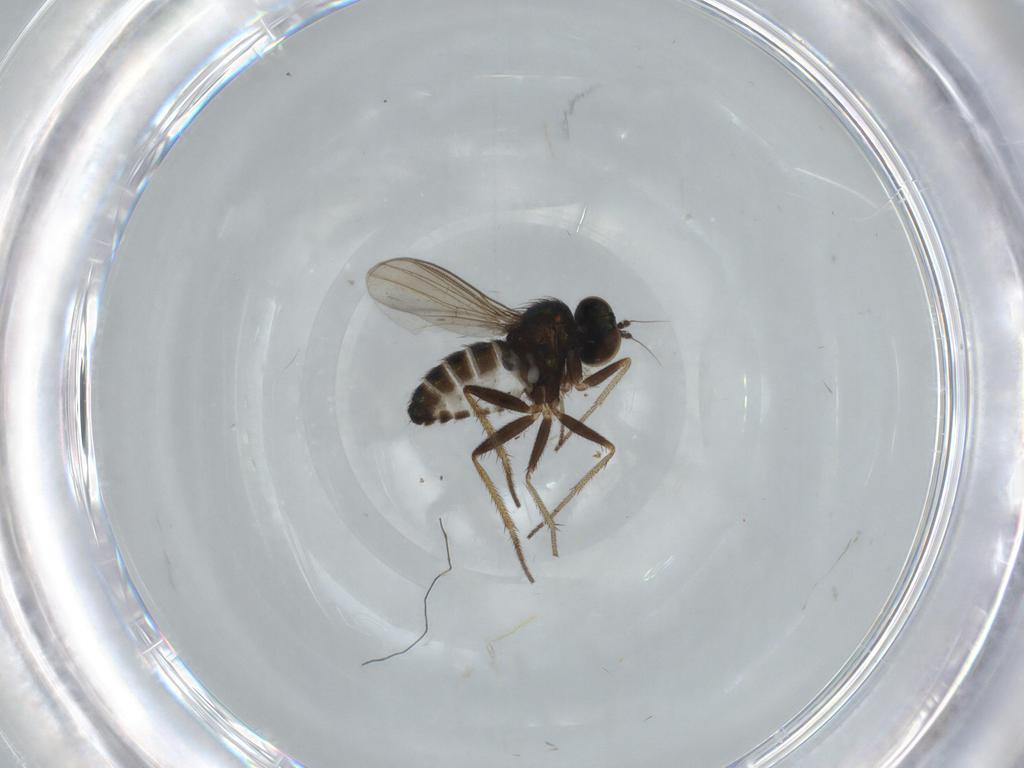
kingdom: Animalia
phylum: Arthropoda
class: Insecta
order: Diptera
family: Dolichopodidae
